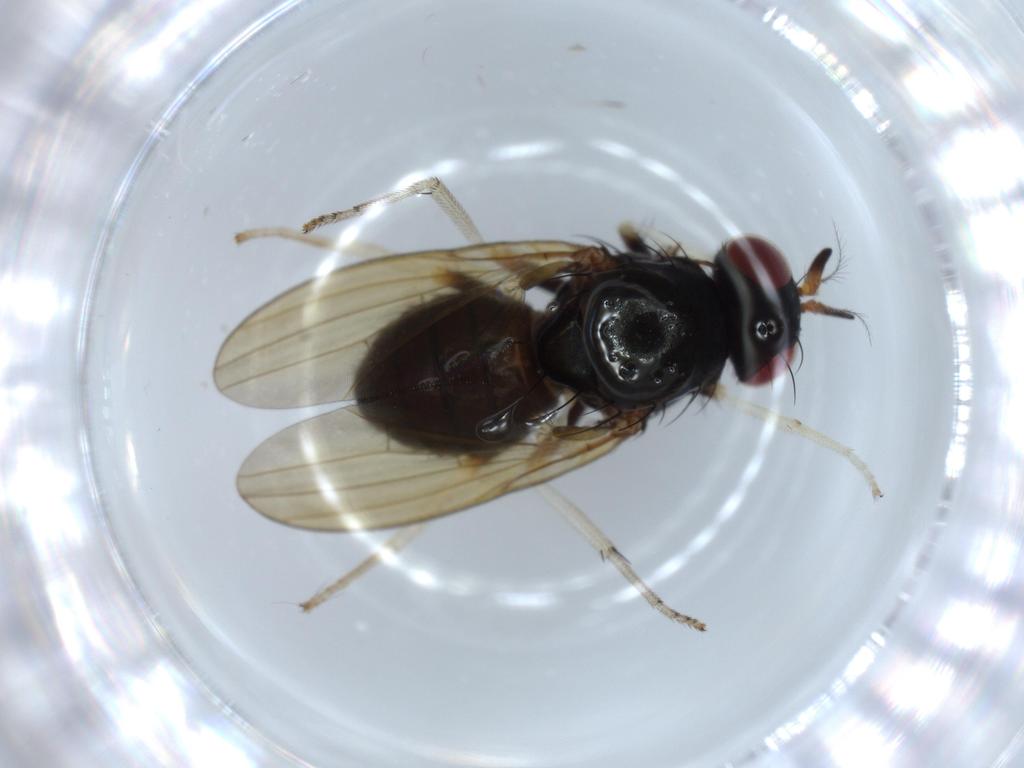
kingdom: Animalia
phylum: Arthropoda
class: Insecta
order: Diptera
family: Lauxaniidae
